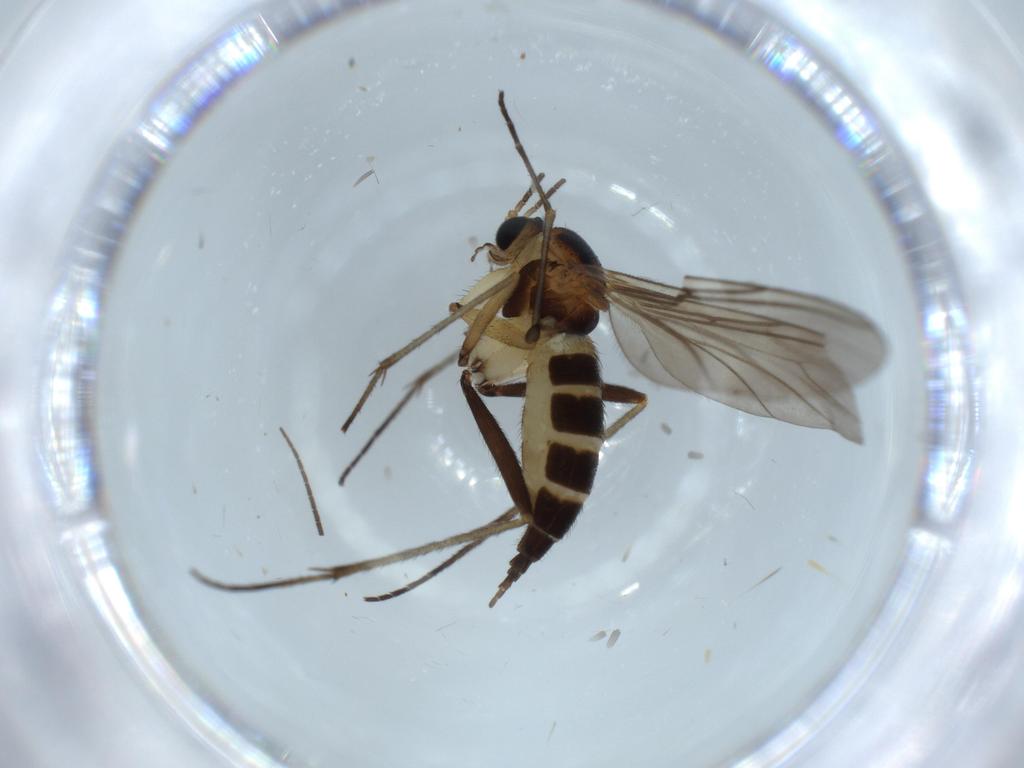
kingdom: Animalia
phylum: Arthropoda
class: Insecta
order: Diptera
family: Sciaridae
